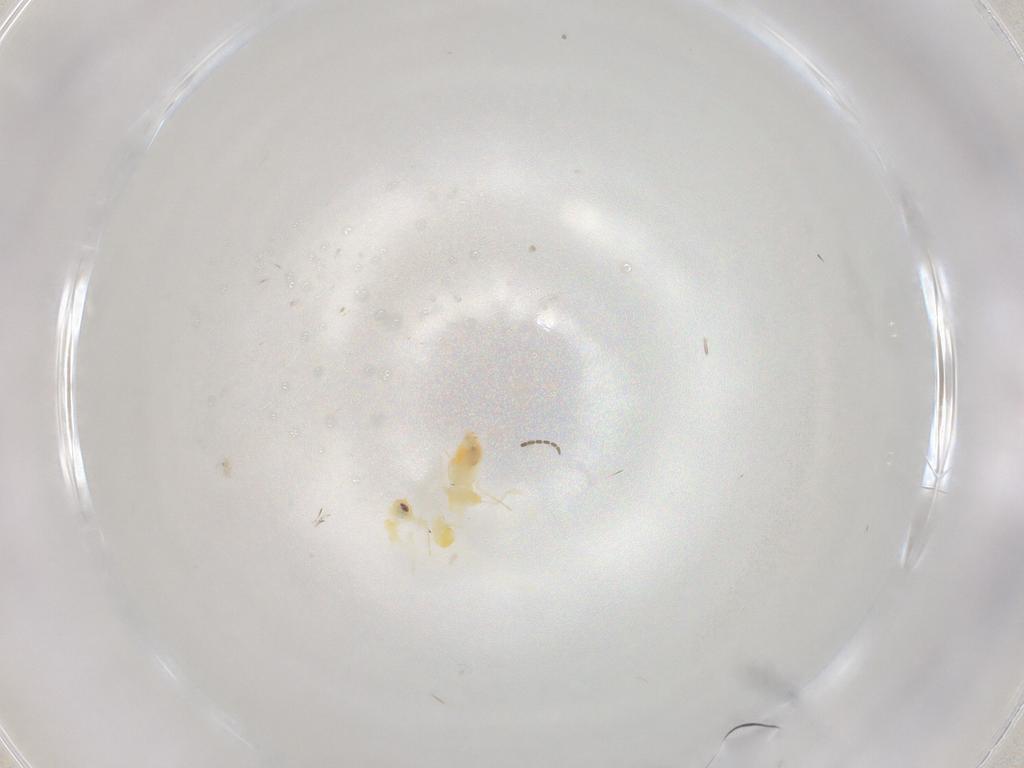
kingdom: Animalia
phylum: Arthropoda
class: Insecta
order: Hemiptera
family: Aleyrodidae
